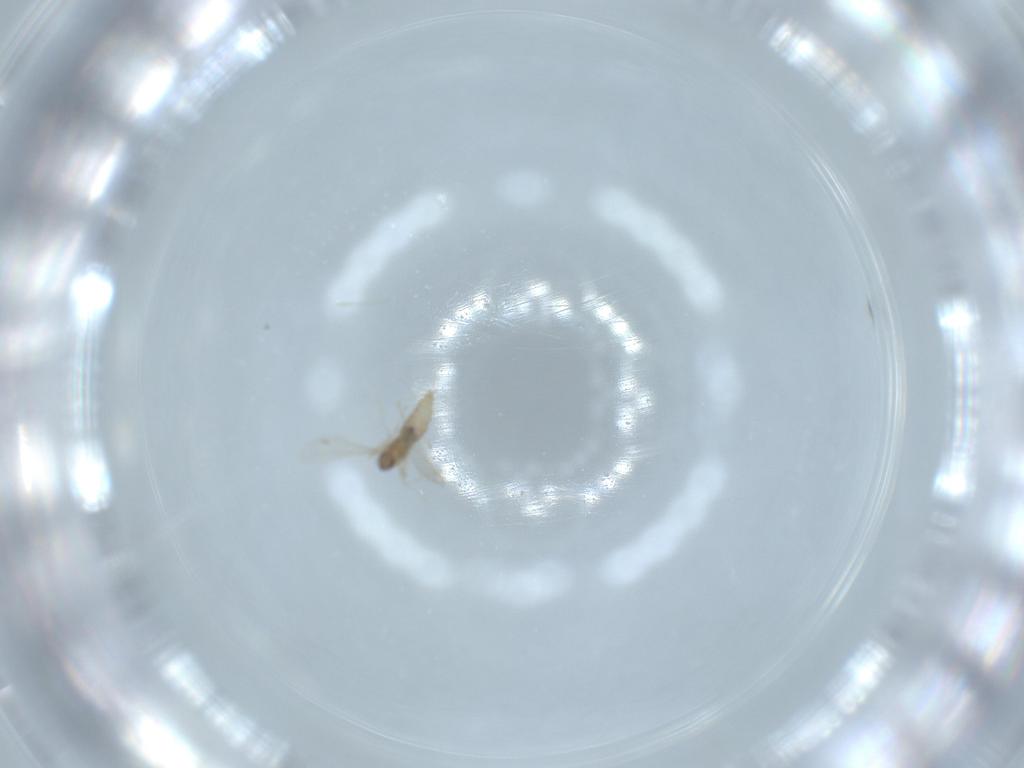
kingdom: Animalia
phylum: Arthropoda
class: Insecta
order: Diptera
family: Cecidomyiidae
